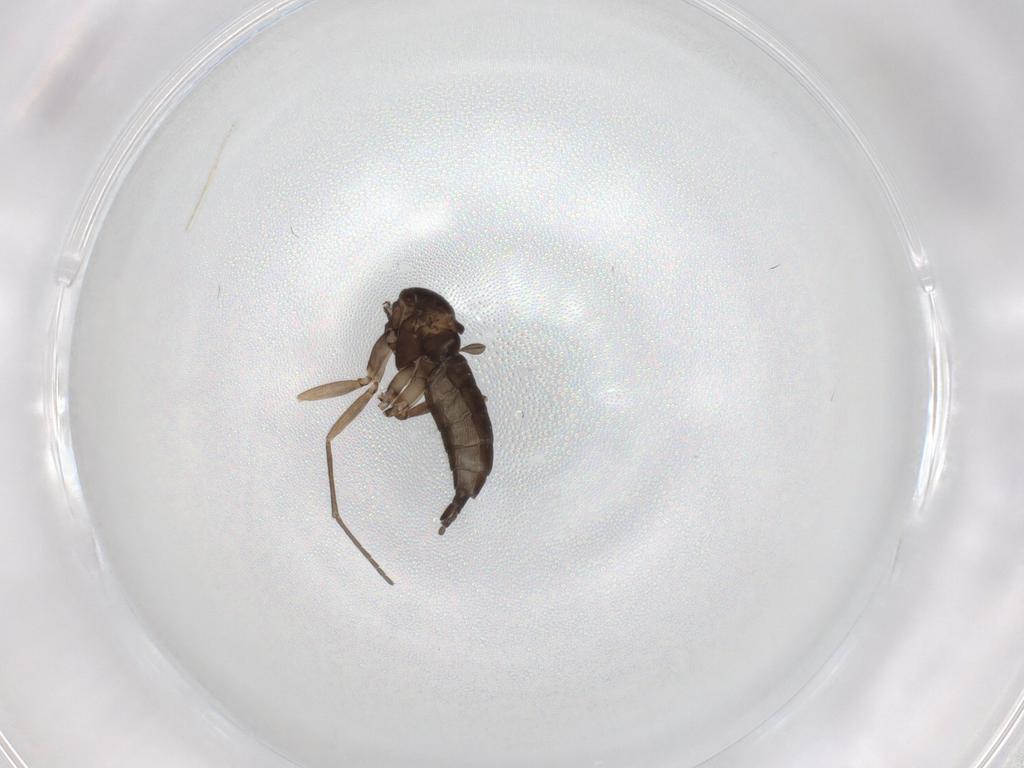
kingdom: Animalia
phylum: Arthropoda
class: Insecta
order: Diptera
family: Sciaridae
